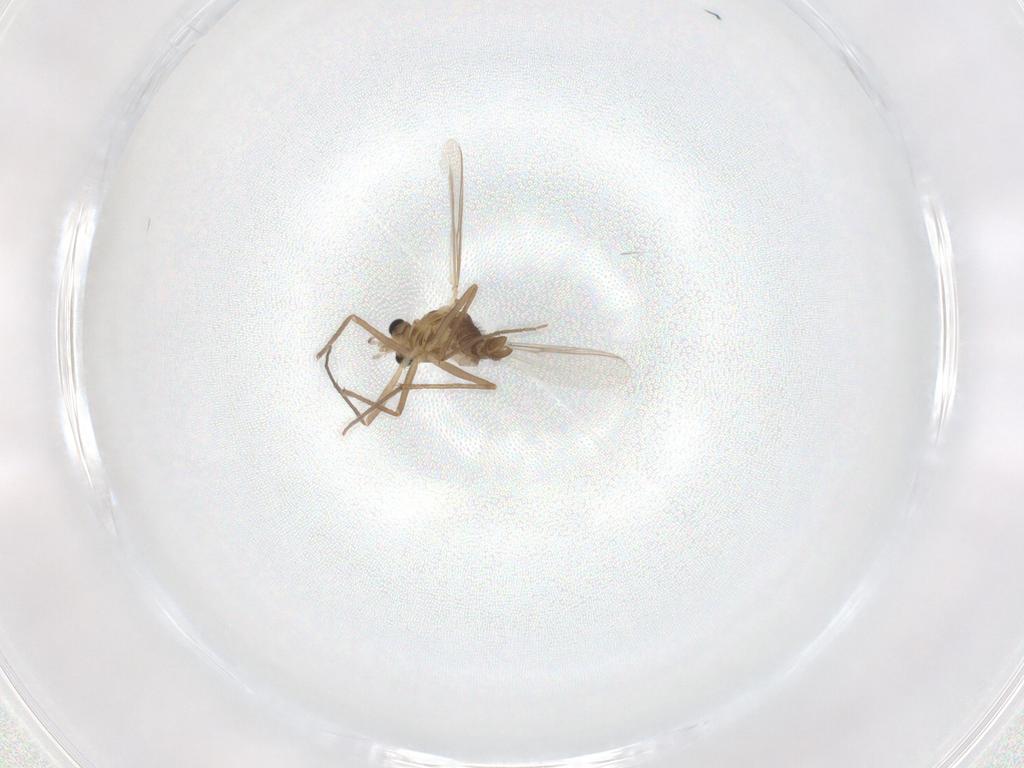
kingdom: Animalia
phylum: Arthropoda
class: Insecta
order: Diptera
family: Chironomidae
